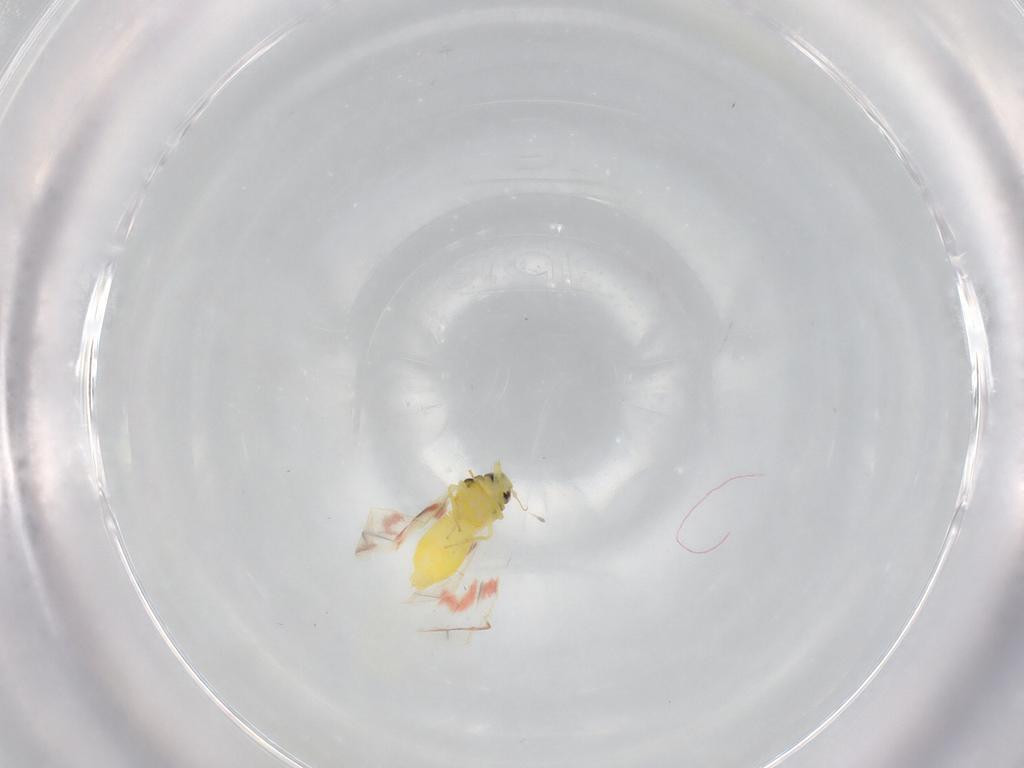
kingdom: Animalia
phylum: Arthropoda
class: Insecta
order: Hemiptera
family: Aleyrodidae
